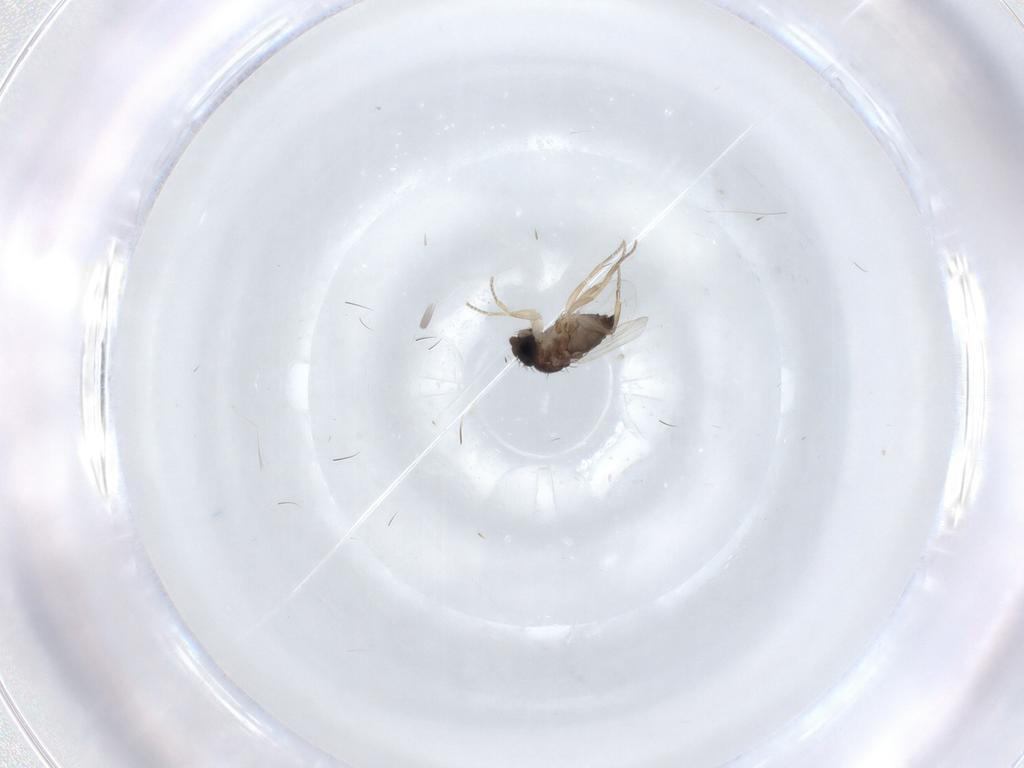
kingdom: Animalia
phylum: Arthropoda
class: Insecta
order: Diptera
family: Phoridae
